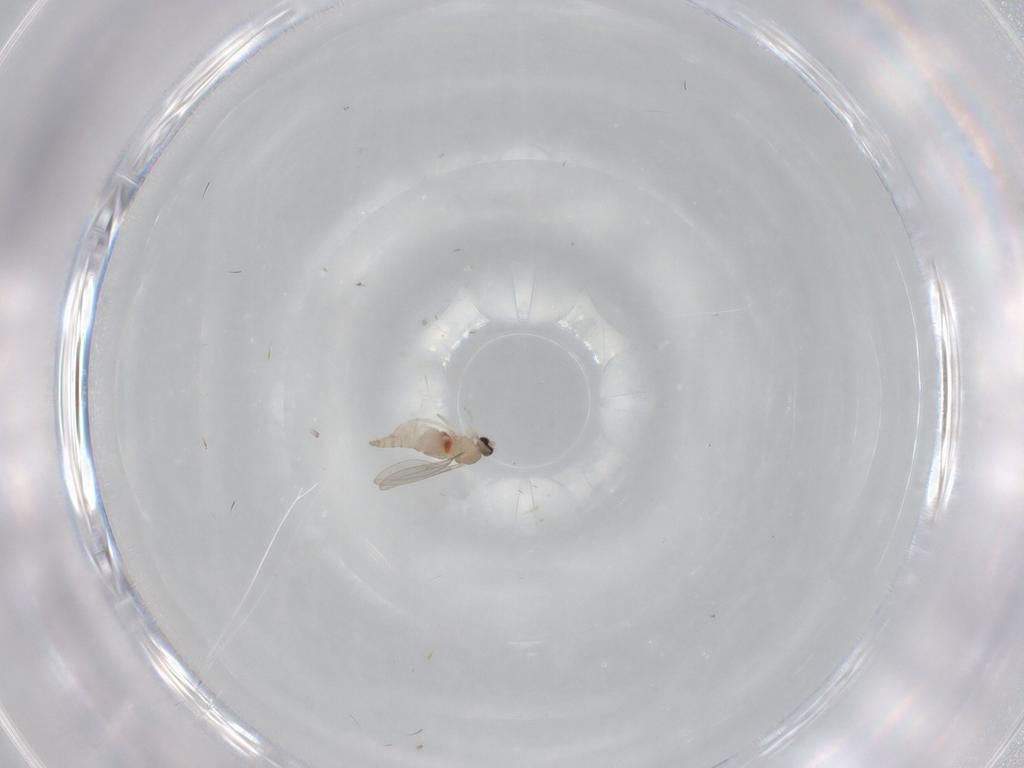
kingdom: Animalia
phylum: Arthropoda
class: Insecta
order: Diptera
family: Cecidomyiidae
